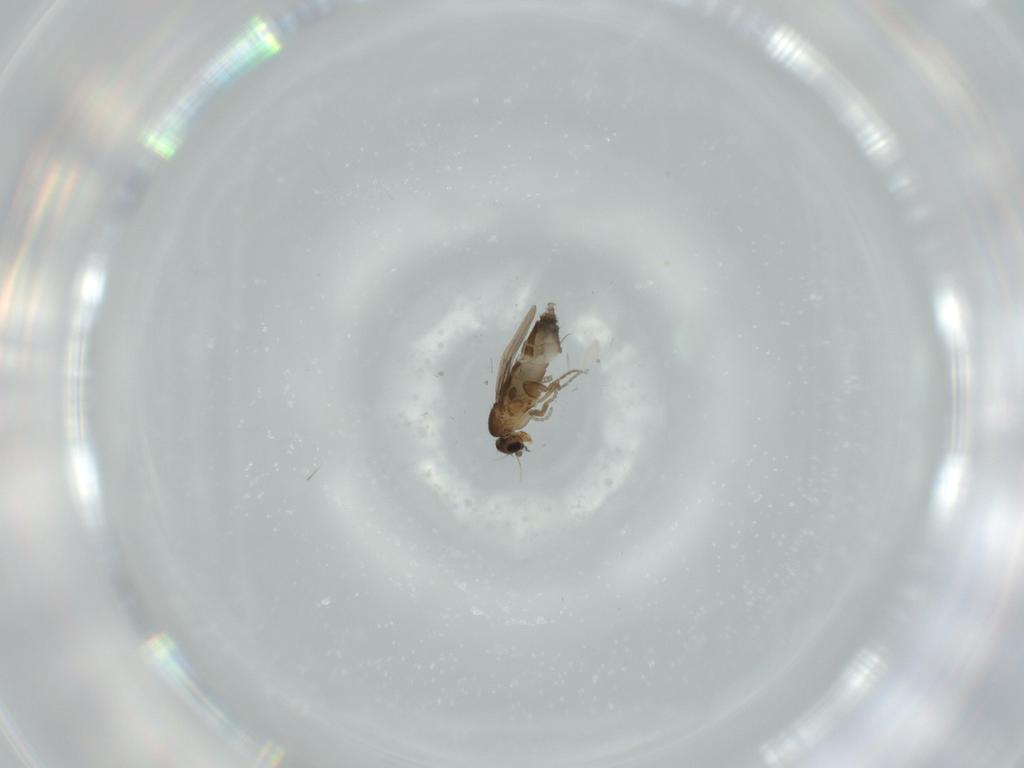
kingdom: Animalia
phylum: Arthropoda
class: Insecta
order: Diptera
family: Phoridae
